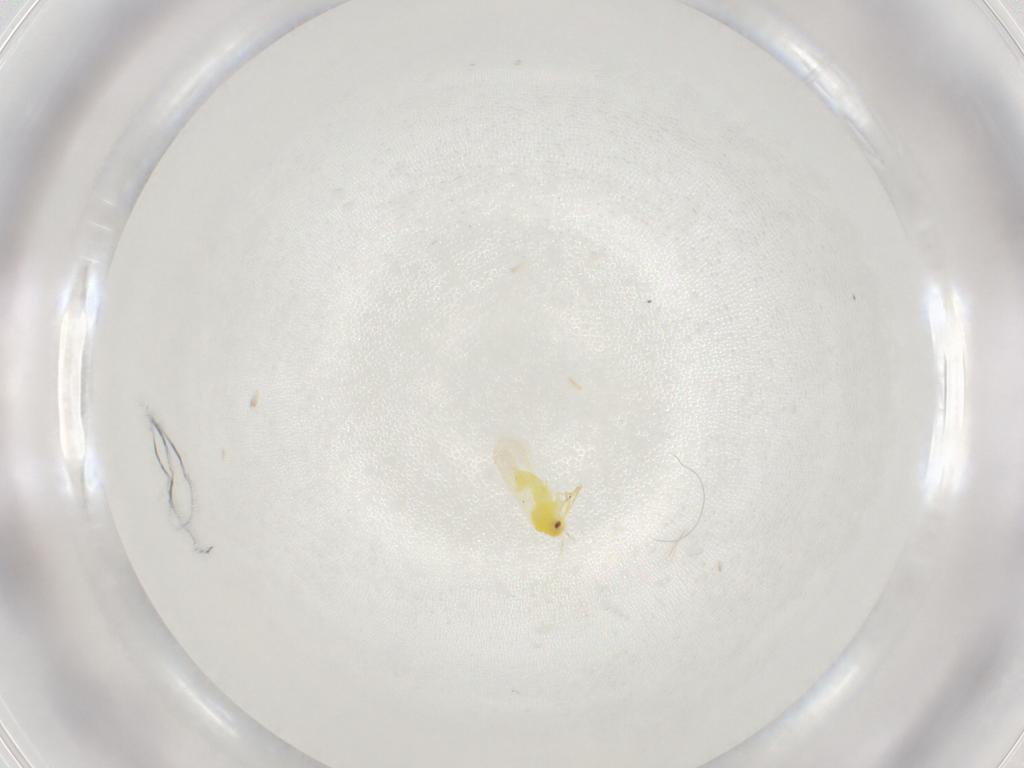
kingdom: Animalia
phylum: Arthropoda
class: Insecta
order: Hemiptera
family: Aleyrodidae
